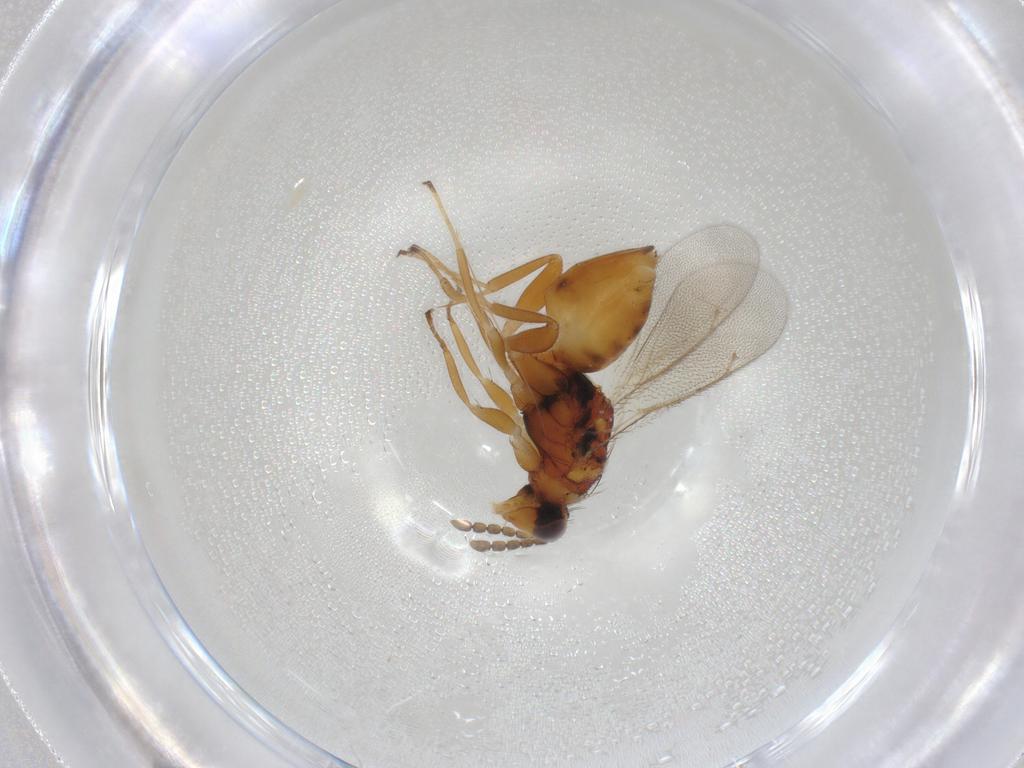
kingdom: Animalia
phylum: Arthropoda
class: Insecta
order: Hymenoptera
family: Eulophidae
